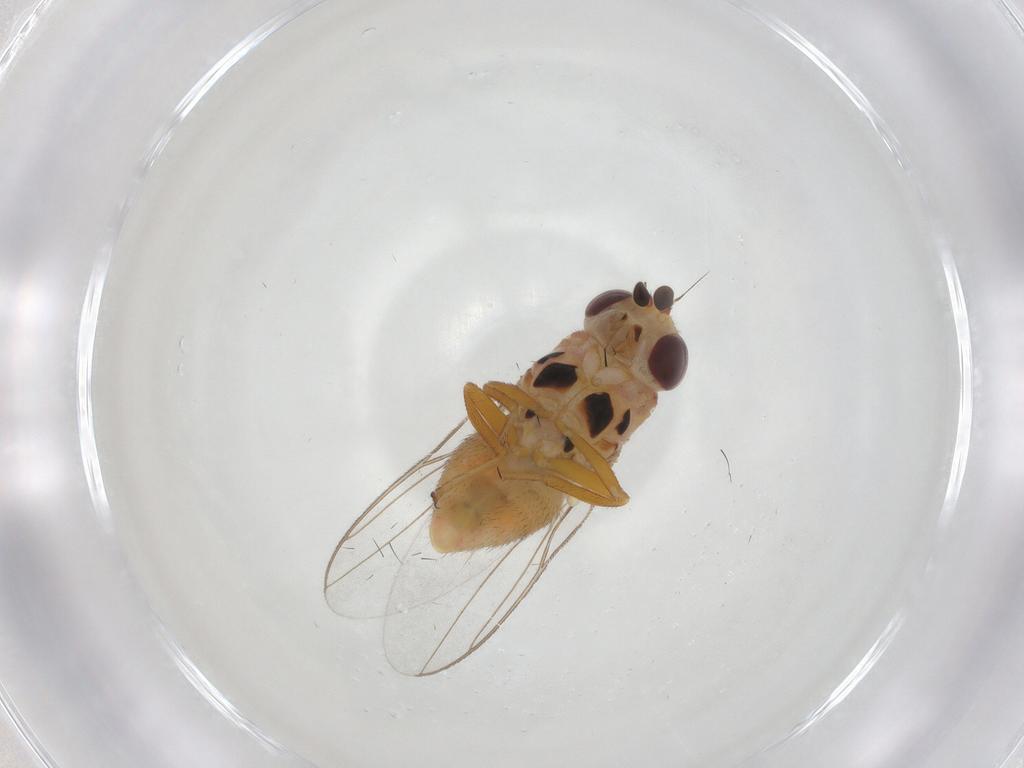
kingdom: Animalia
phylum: Arthropoda
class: Insecta
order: Diptera
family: Chloropidae
